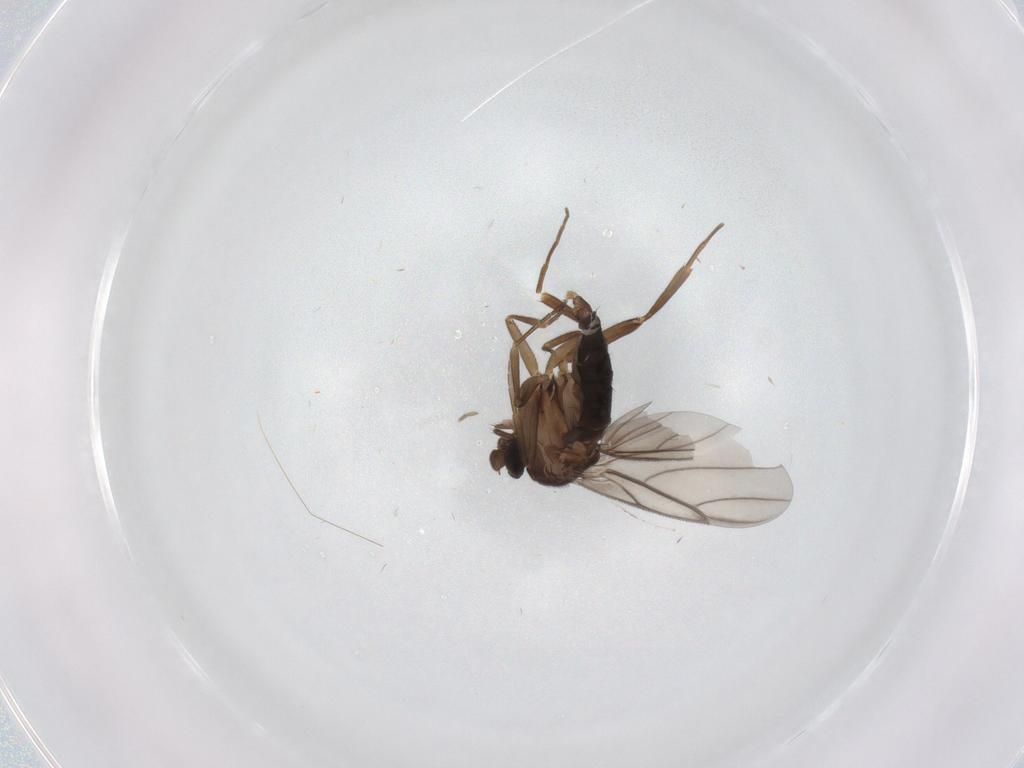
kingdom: Animalia
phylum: Arthropoda
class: Insecta
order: Diptera
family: Phoridae
